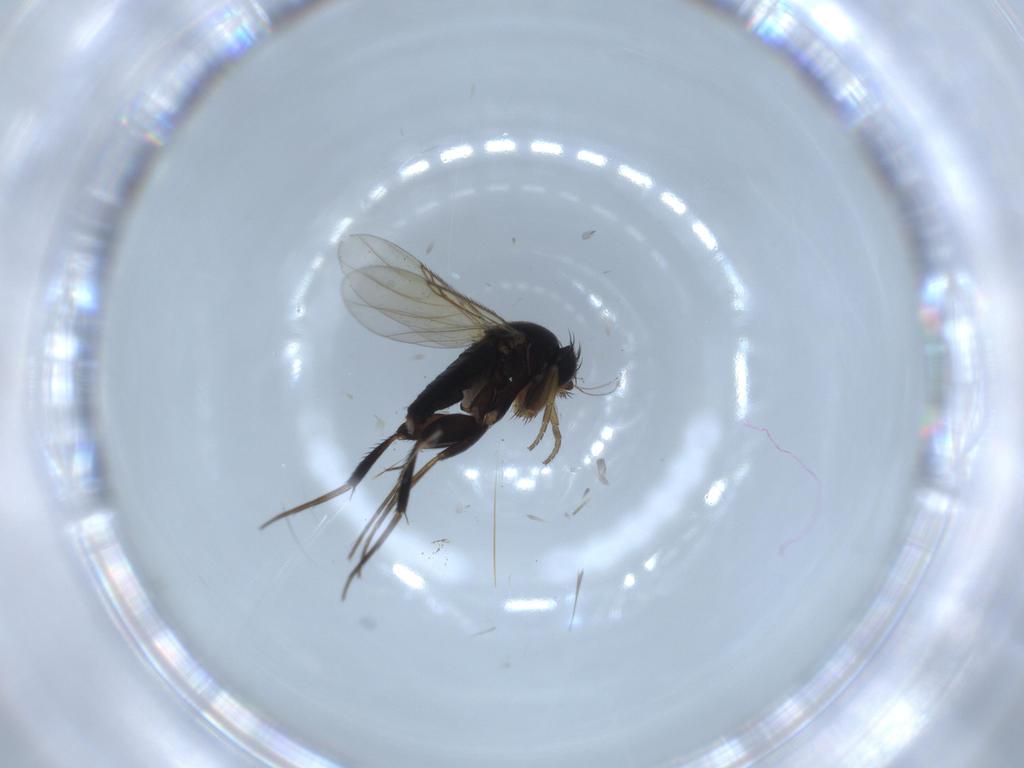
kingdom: Animalia
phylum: Arthropoda
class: Insecta
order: Diptera
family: Phoridae
